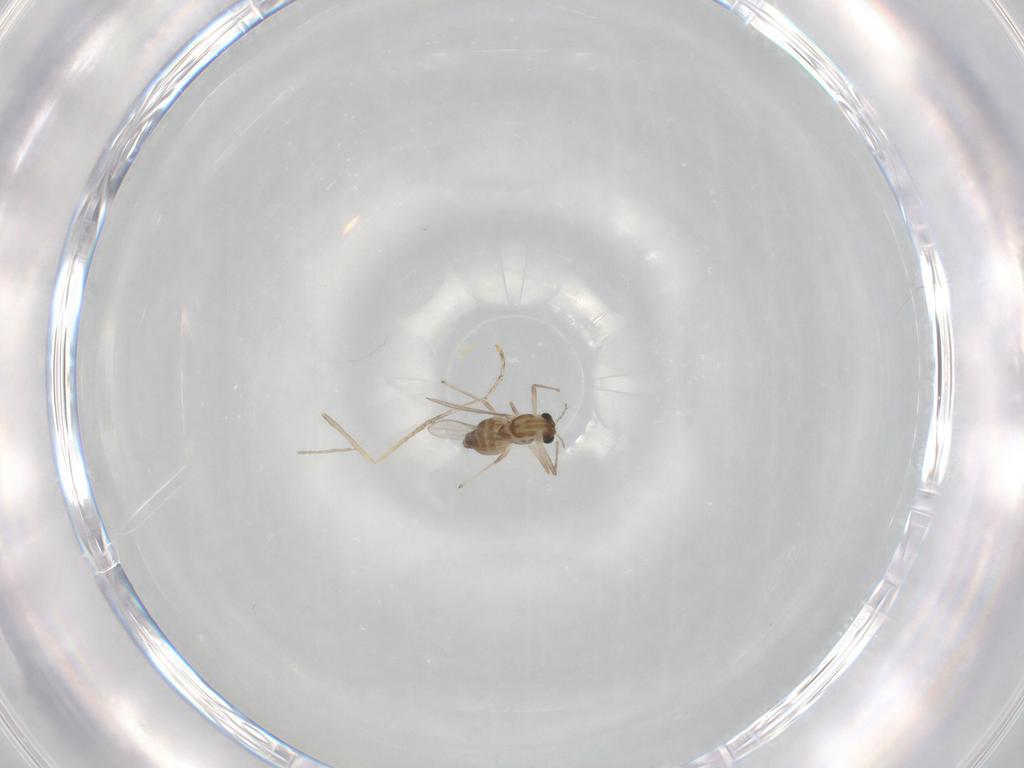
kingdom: Animalia
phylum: Arthropoda
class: Insecta
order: Diptera
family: Chironomidae
